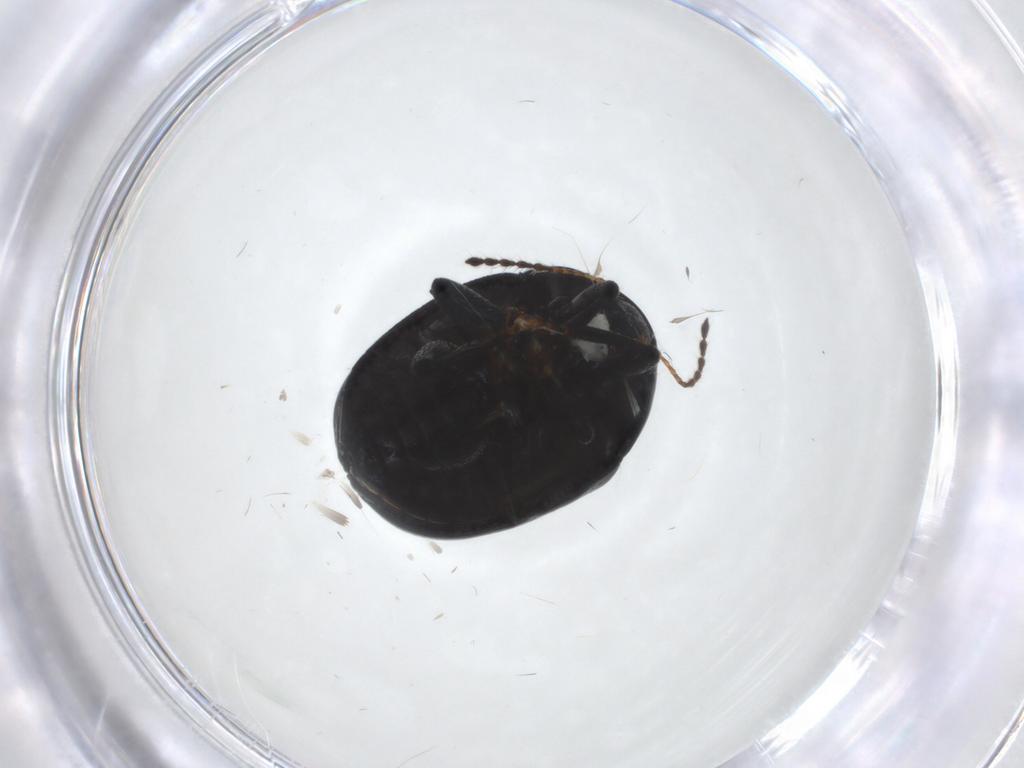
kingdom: Animalia
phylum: Arthropoda
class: Insecta
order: Coleoptera
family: Chrysomelidae
